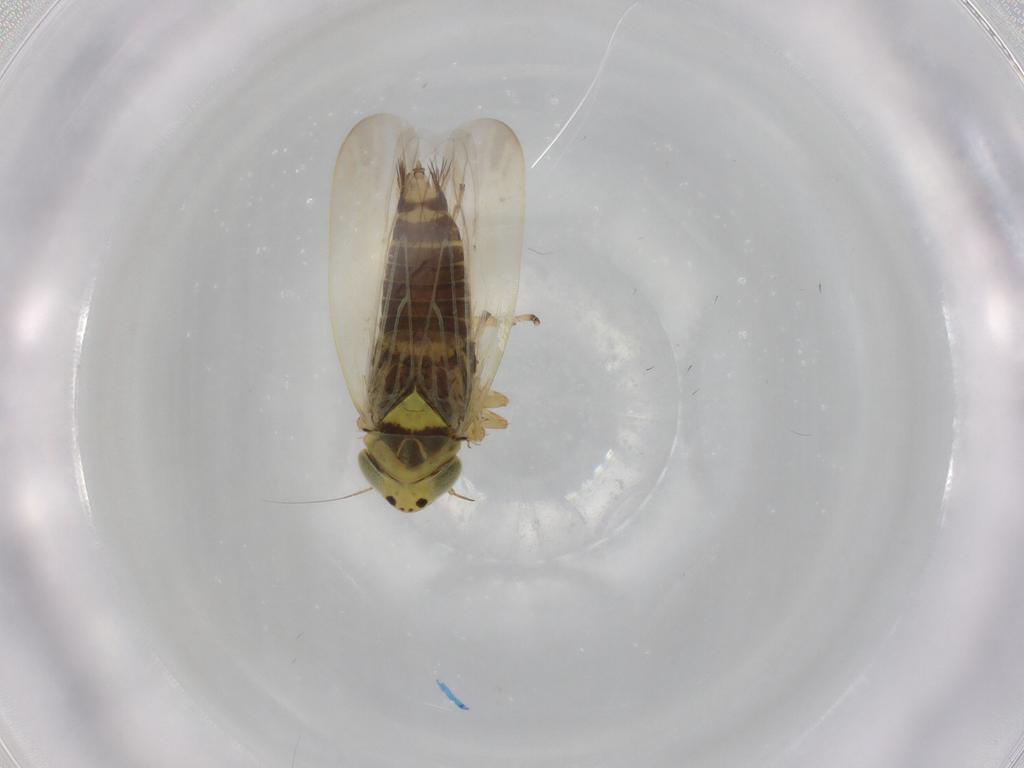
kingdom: Animalia
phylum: Arthropoda
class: Insecta
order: Hemiptera
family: Cicadellidae
